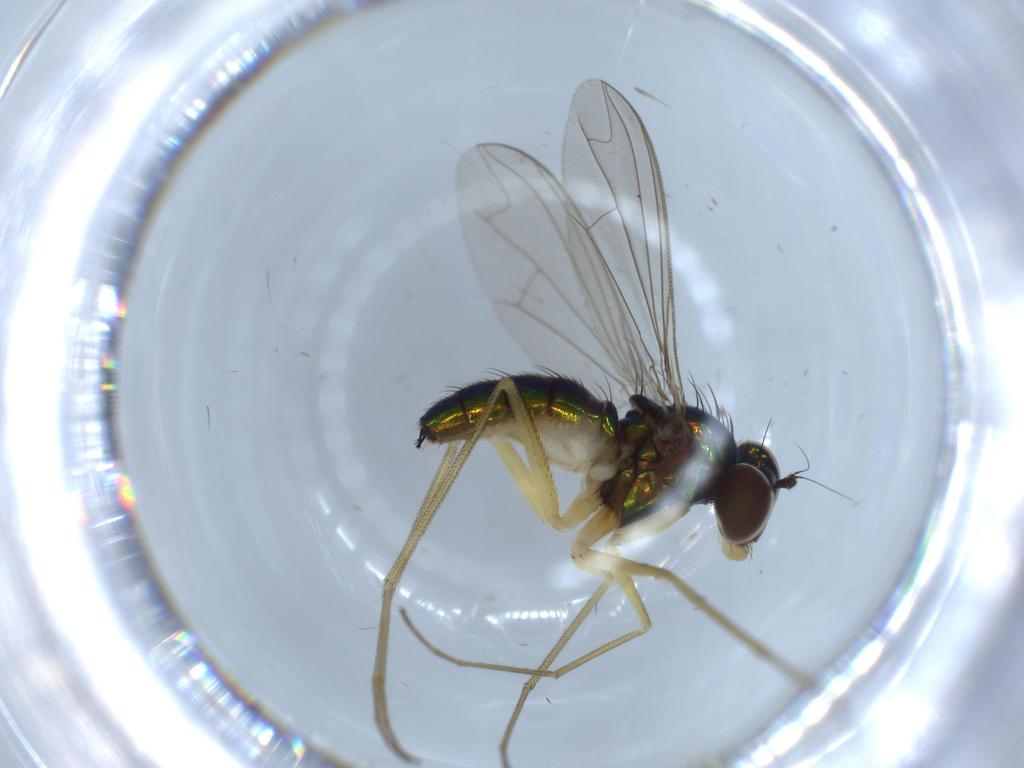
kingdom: Animalia
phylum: Arthropoda
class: Insecta
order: Diptera
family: Dolichopodidae
